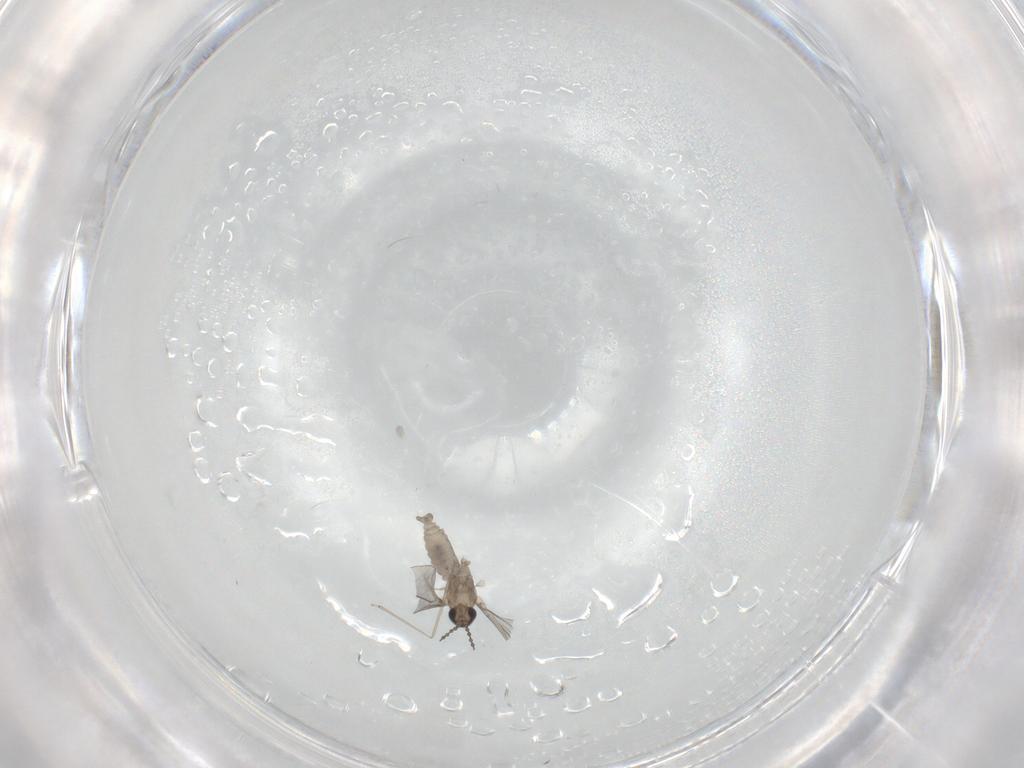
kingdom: Animalia
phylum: Arthropoda
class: Insecta
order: Diptera
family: Cecidomyiidae
